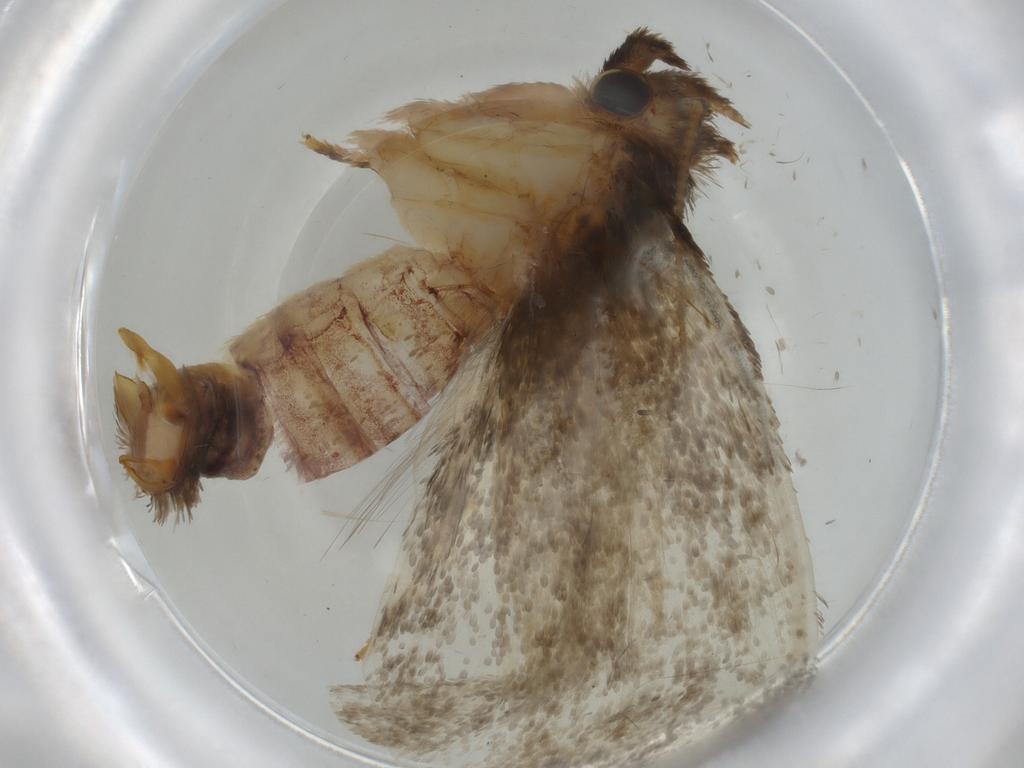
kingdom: Animalia
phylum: Arthropoda
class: Insecta
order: Lepidoptera
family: Tineidae
